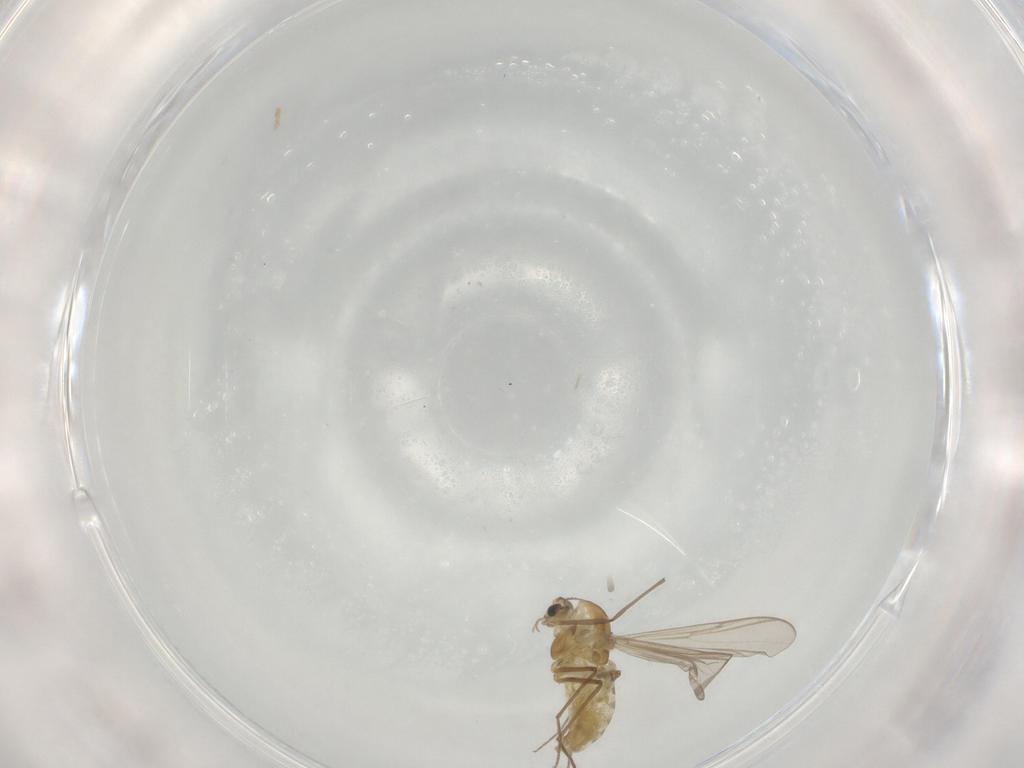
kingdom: Animalia
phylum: Arthropoda
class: Insecta
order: Diptera
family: Chironomidae
